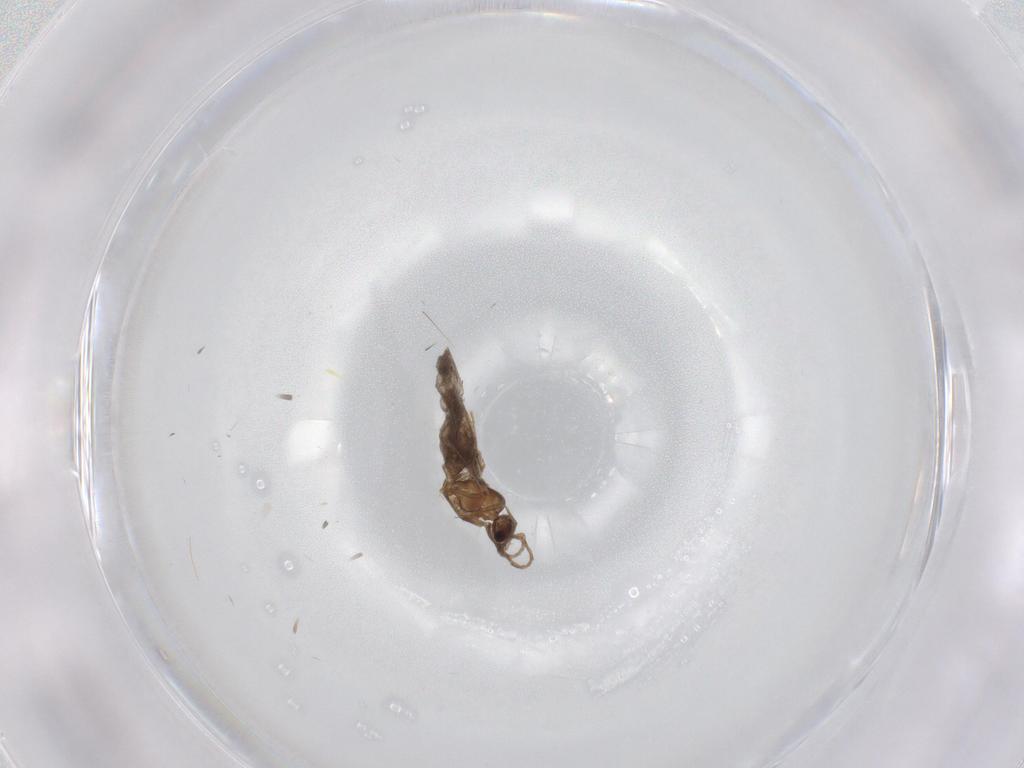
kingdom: Animalia
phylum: Arthropoda
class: Insecta
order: Hymenoptera
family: Formicidae
